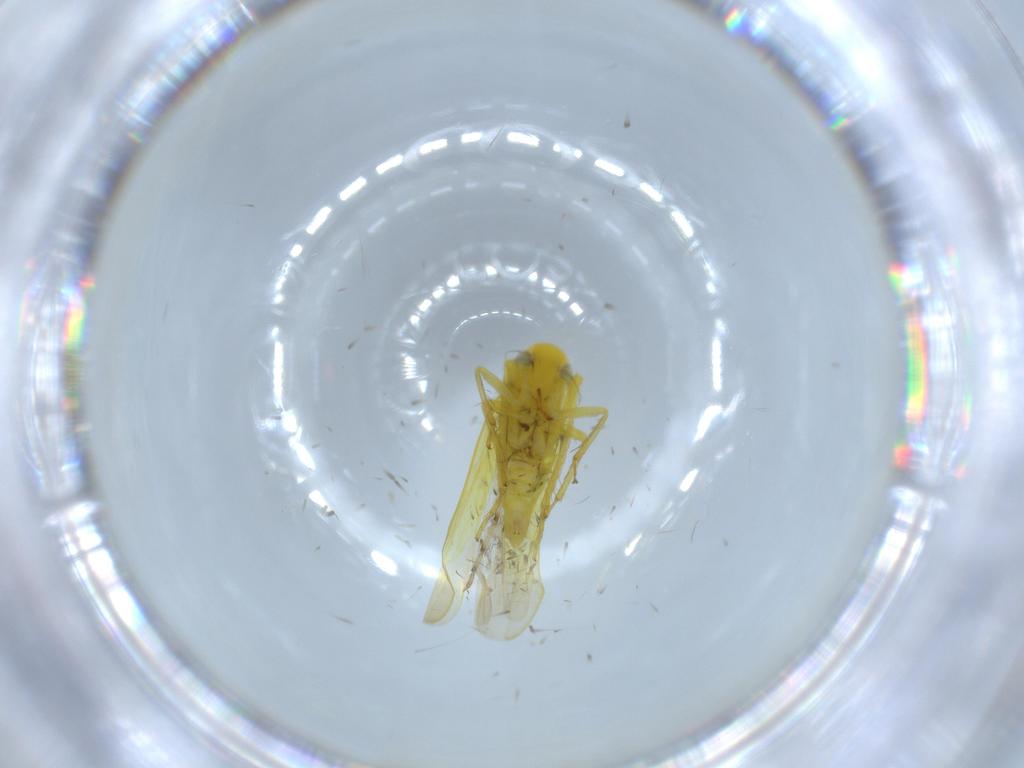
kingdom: Animalia
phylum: Arthropoda
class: Insecta
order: Hemiptera
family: Cicadellidae
